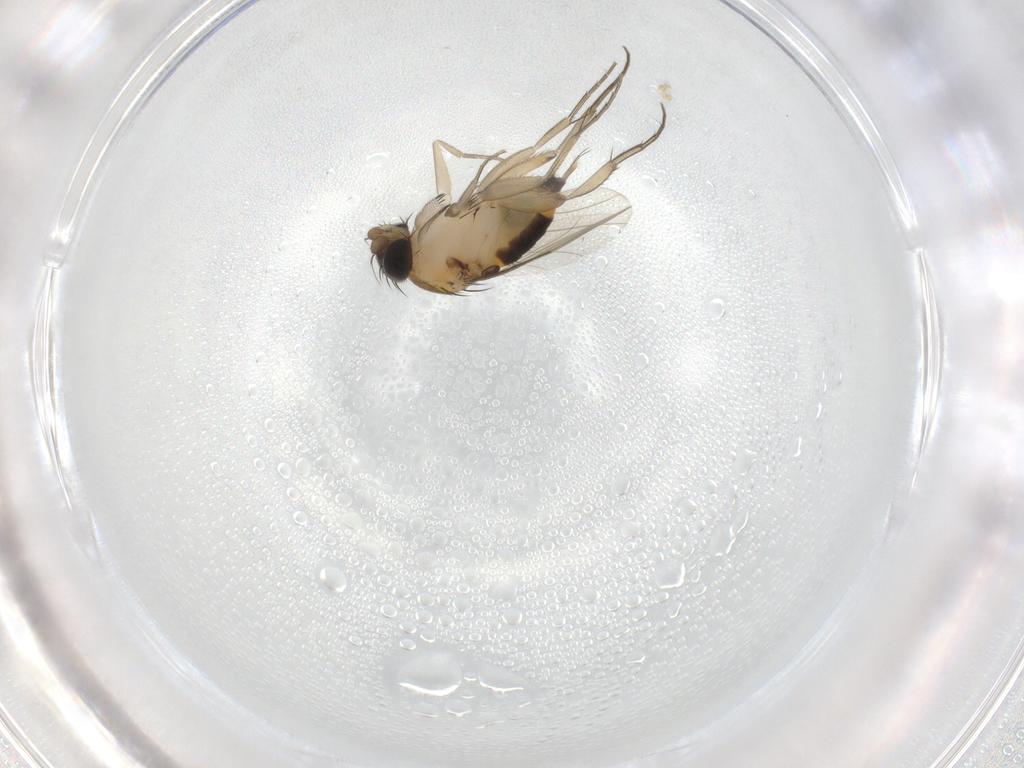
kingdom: Animalia
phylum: Arthropoda
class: Insecta
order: Diptera
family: Phoridae
